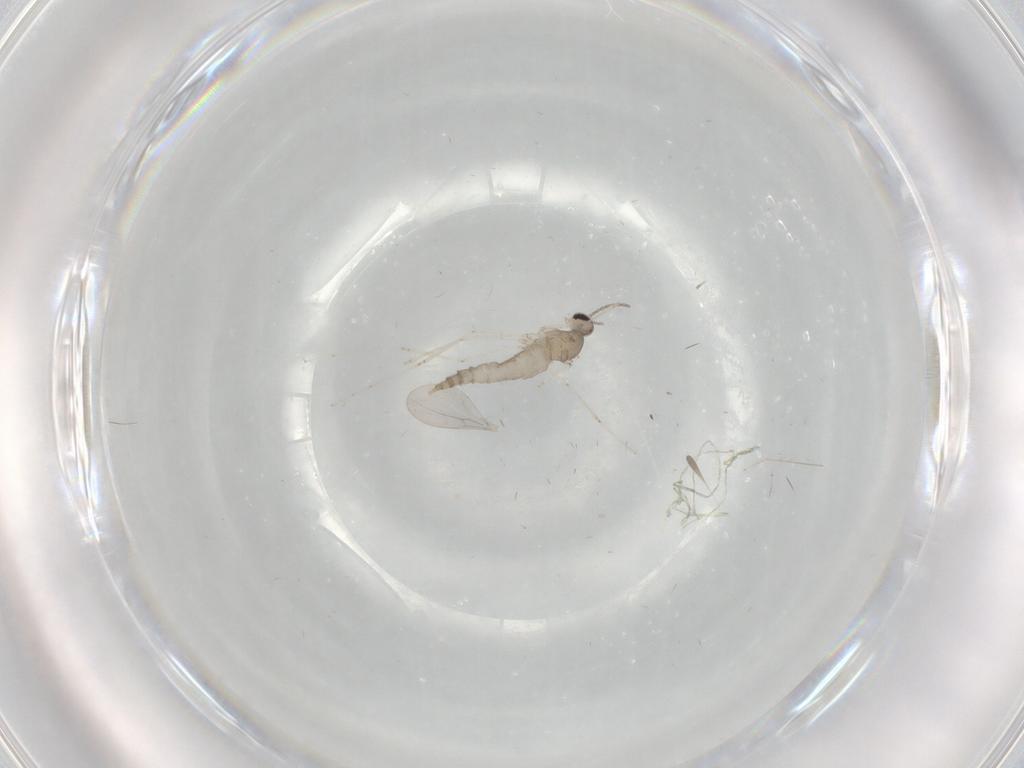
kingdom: Animalia
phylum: Arthropoda
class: Insecta
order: Diptera
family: Cecidomyiidae
